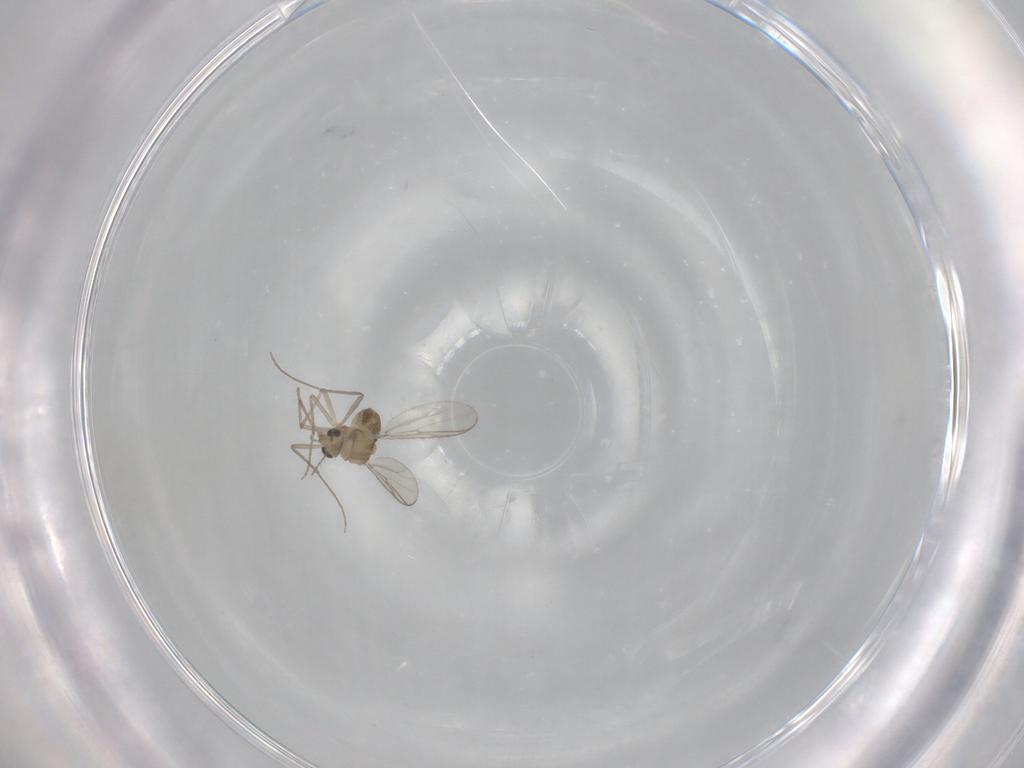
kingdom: Animalia
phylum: Arthropoda
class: Insecta
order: Diptera
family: Chironomidae
